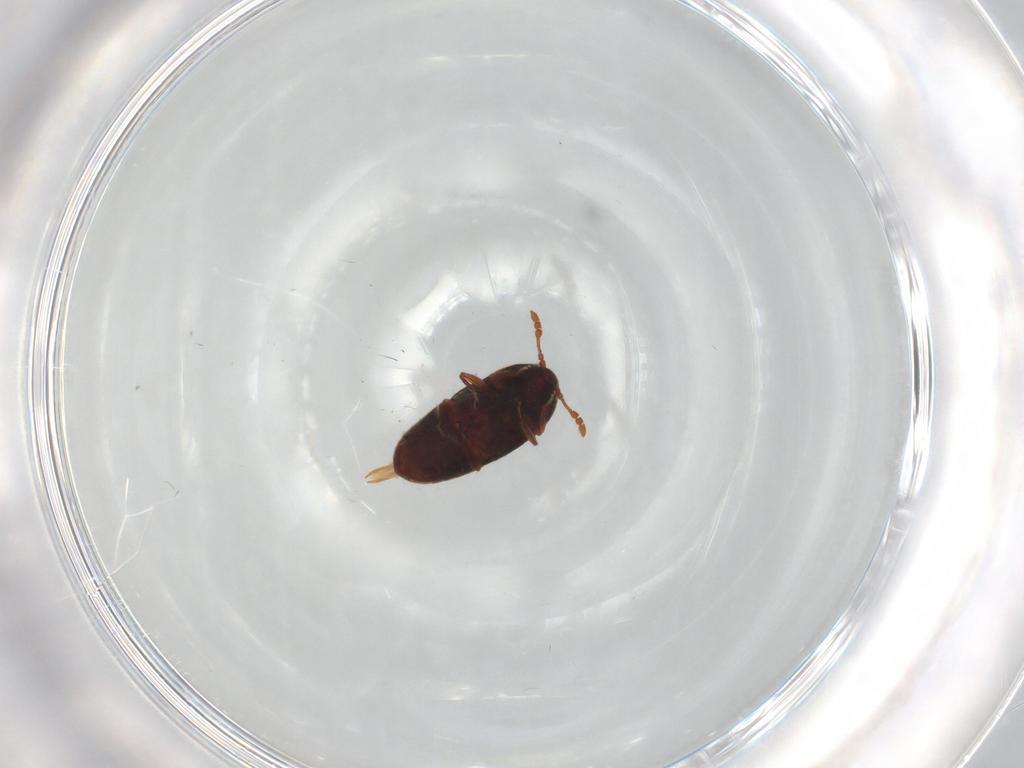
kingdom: Animalia
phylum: Arthropoda
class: Insecta
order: Coleoptera
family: Throscidae
